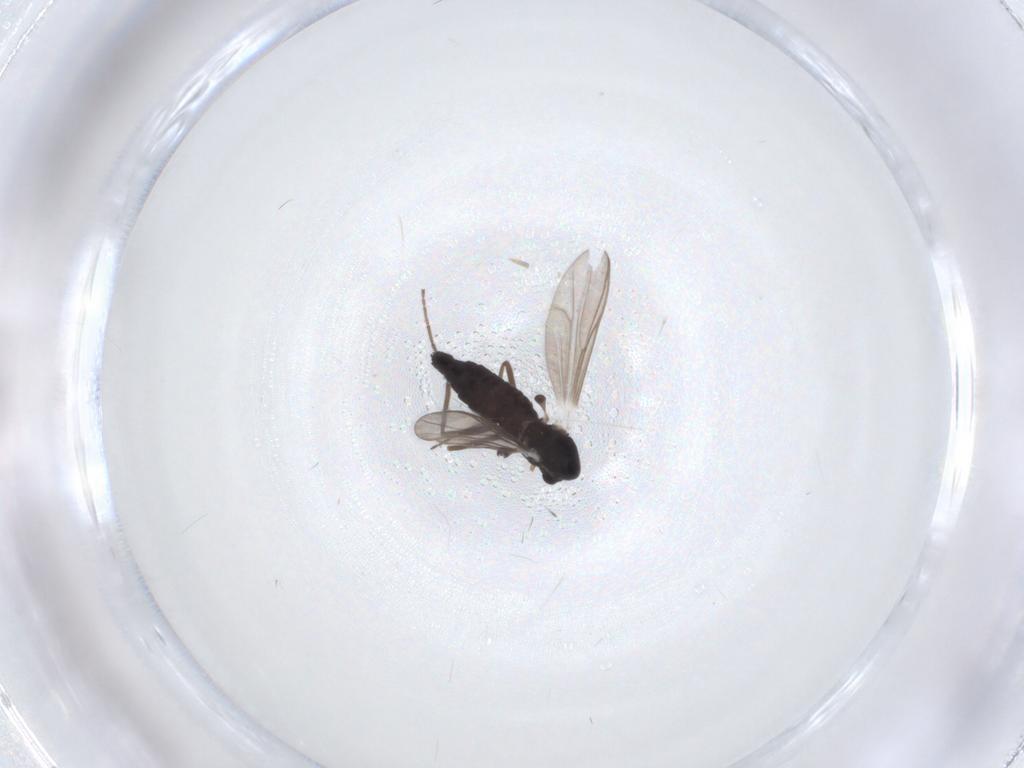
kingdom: Animalia
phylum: Arthropoda
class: Insecta
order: Diptera
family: Chironomidae
